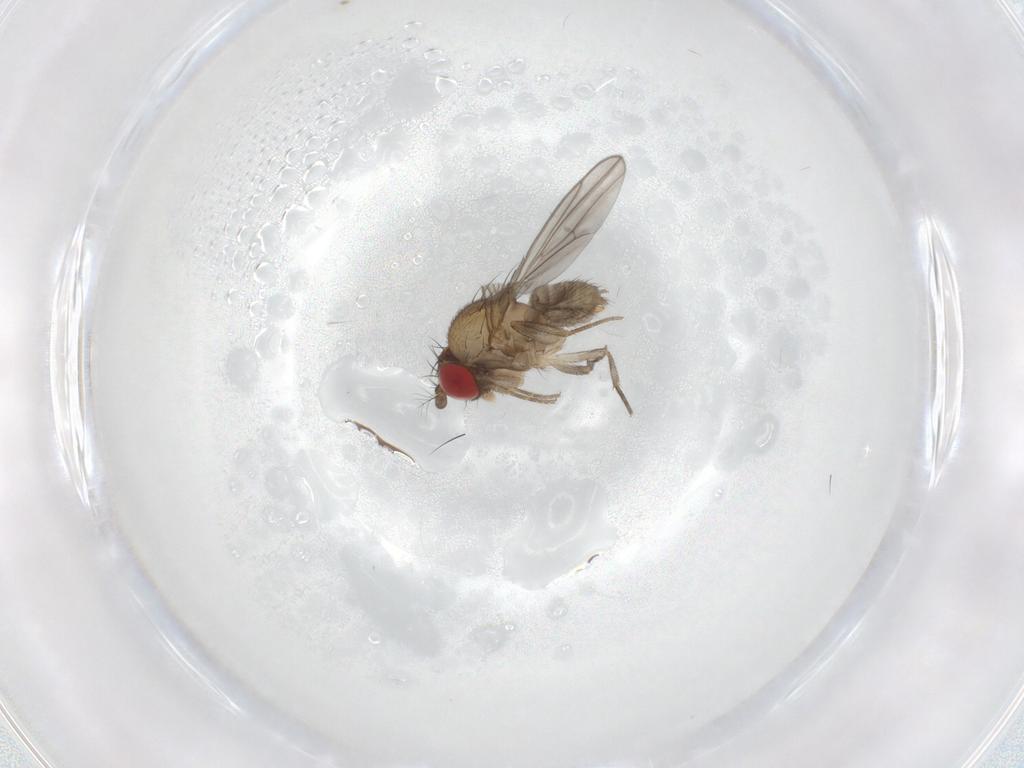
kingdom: Animalia
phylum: Arthropoda
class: Insecta
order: Diptera
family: Drosophilidae
